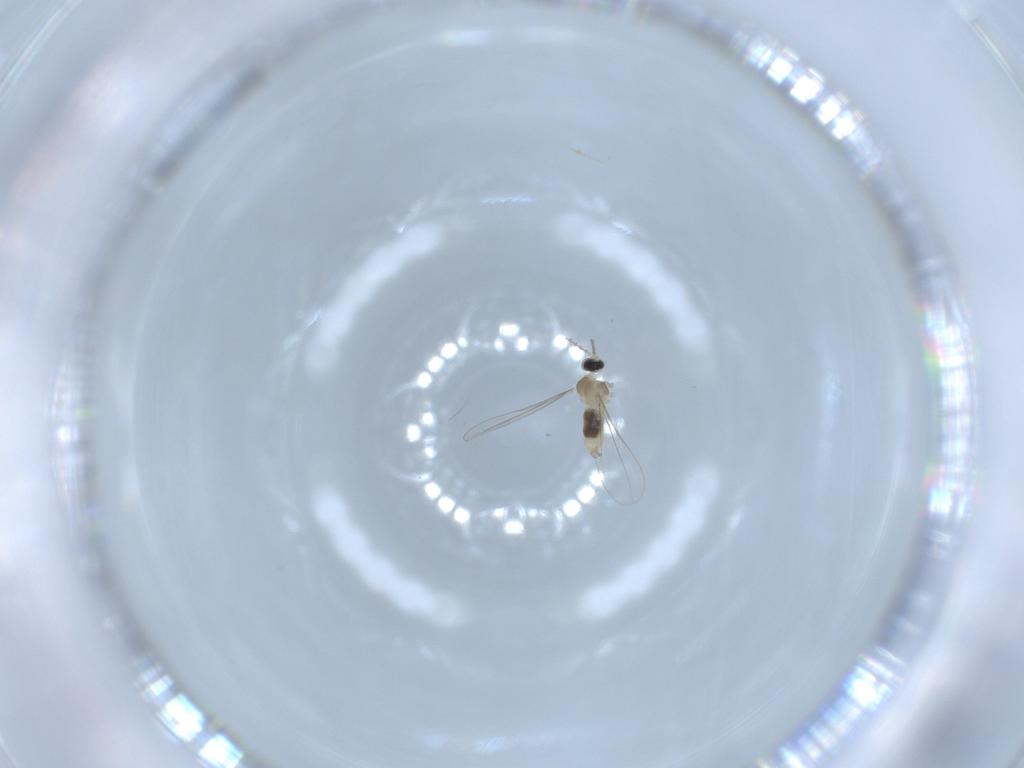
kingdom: Animalia
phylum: Arthropoda
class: Insecta
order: Diptera
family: Cecidomyiidae
